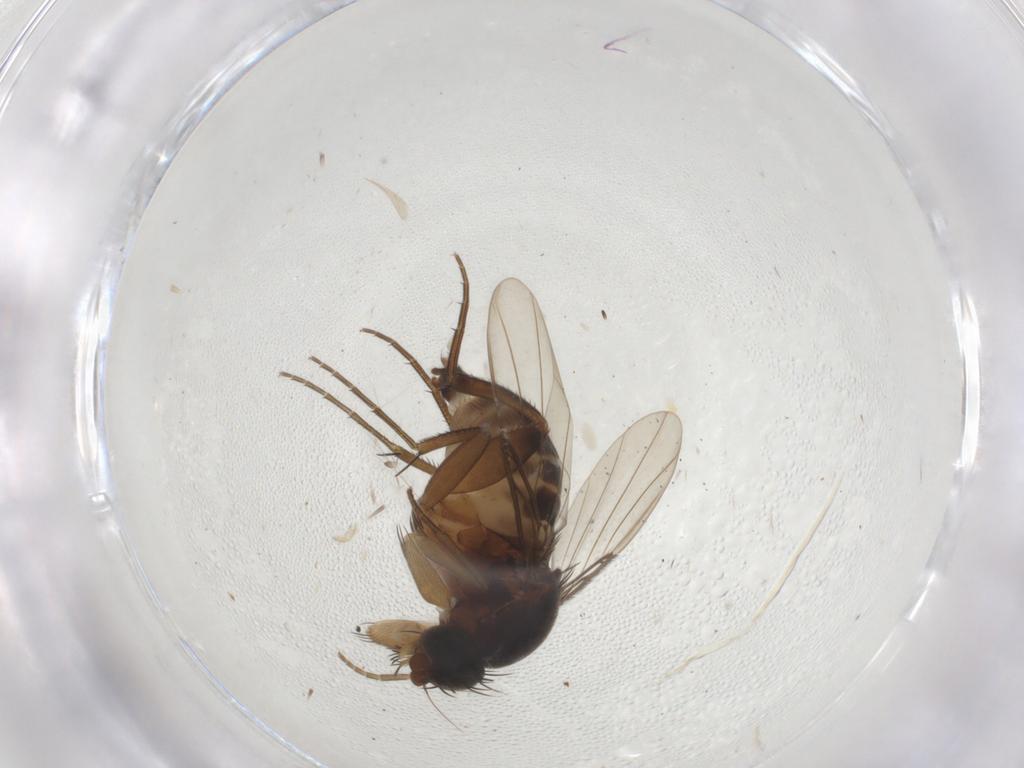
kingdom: Animalia
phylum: Arthropoda
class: Insecta
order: Diptera
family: Phoridae
